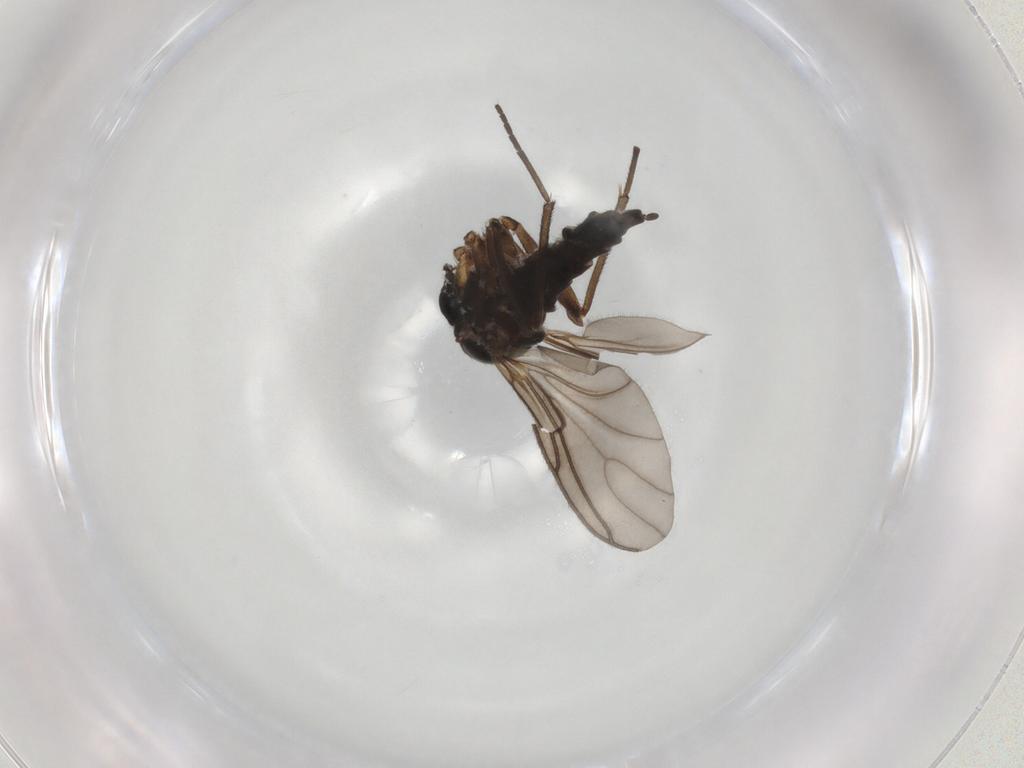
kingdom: Animalia
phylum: Arthropoda
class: Insecta
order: Diptera
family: Sciaridae
